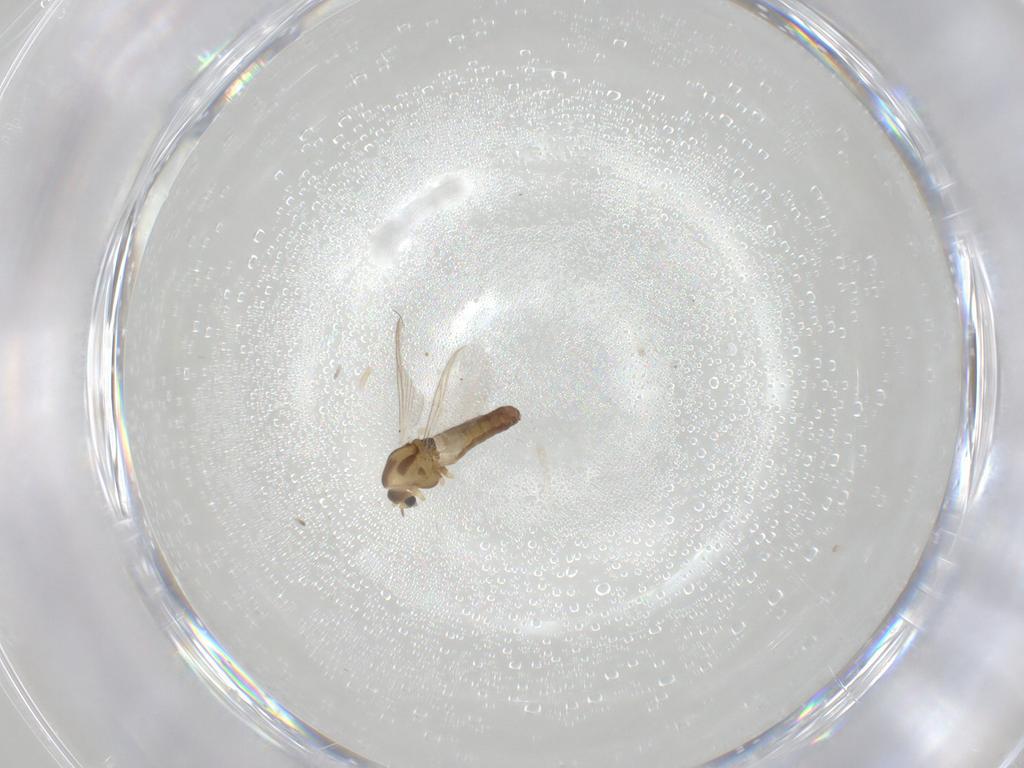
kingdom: Animalia
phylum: Arthropoda
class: Insecta
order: Diptera
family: Chironomidae
